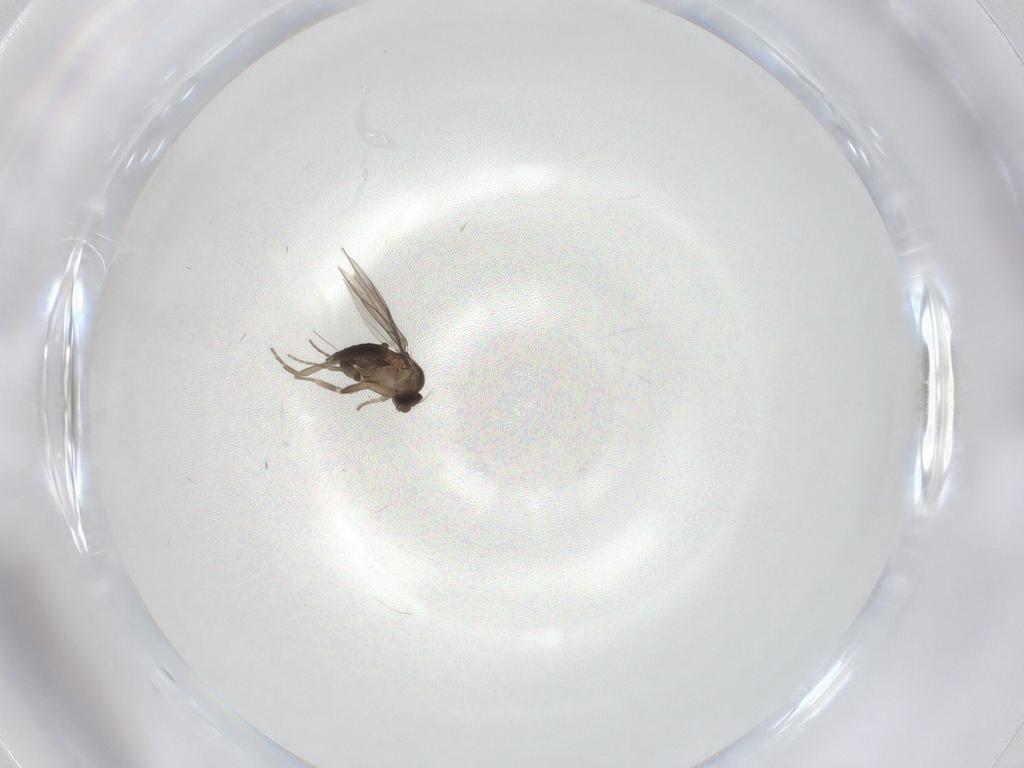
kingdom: Animalia
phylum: Arthropoda
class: Insecta
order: Diptera
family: Phoridae
